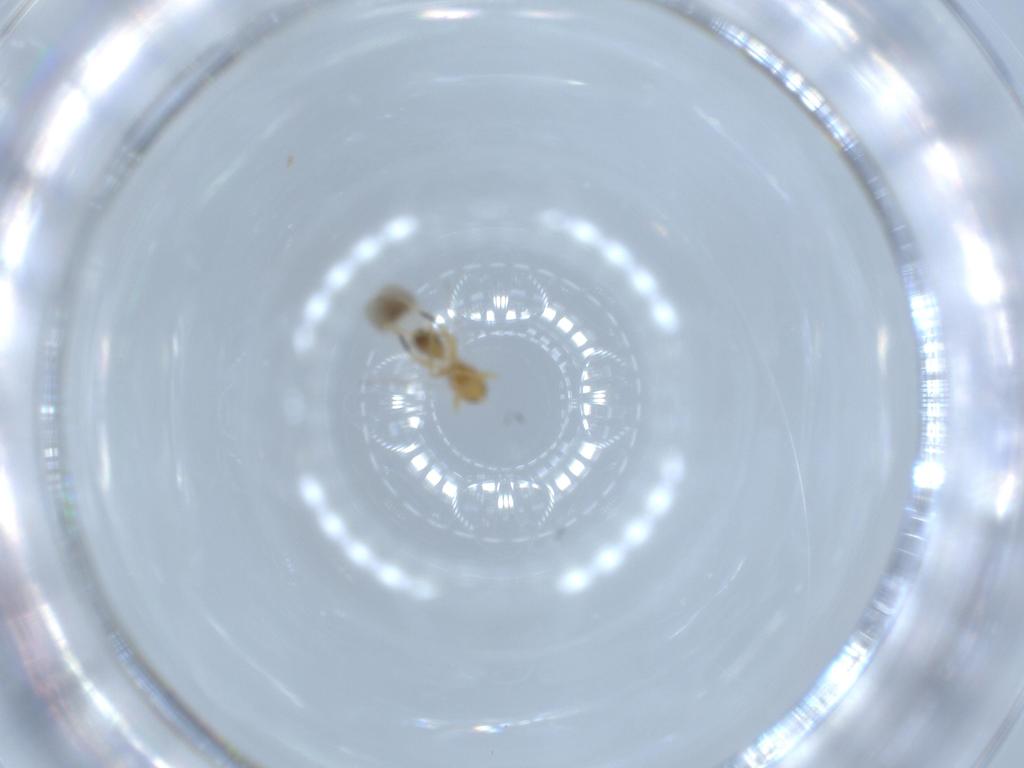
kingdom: Animalia
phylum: Arthropoda
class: Insecta
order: Hymenoptera
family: Mymaridae
